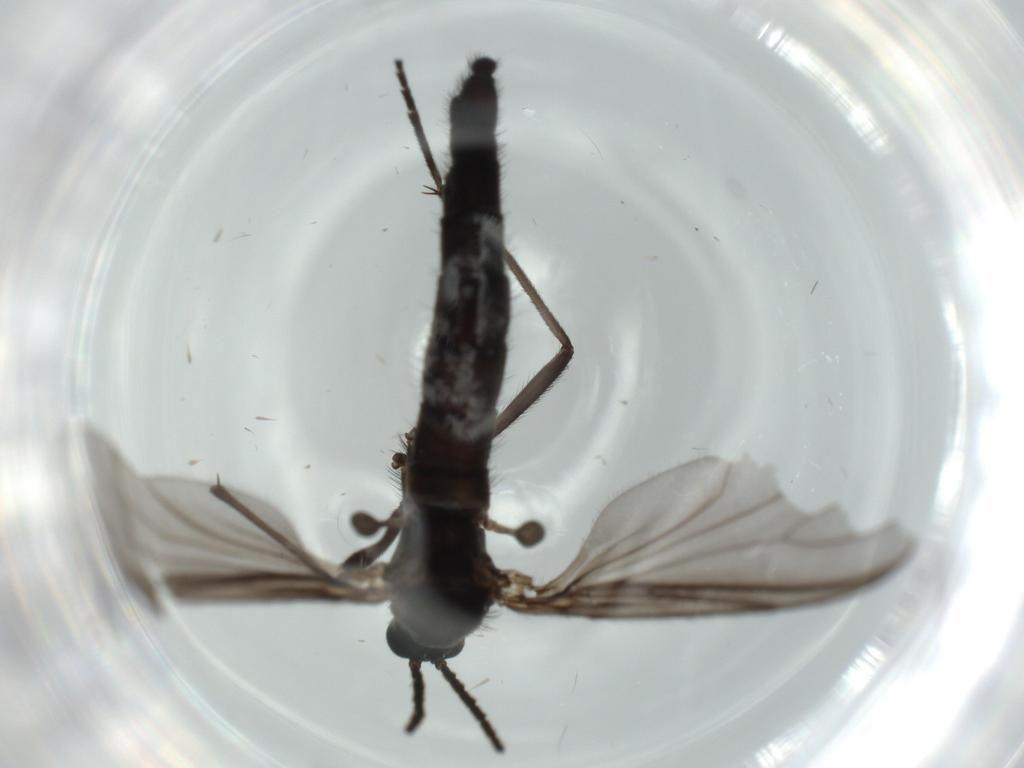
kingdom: Animalia
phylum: Arthropoda
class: Insecta
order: Diptera
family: Milichiidae
